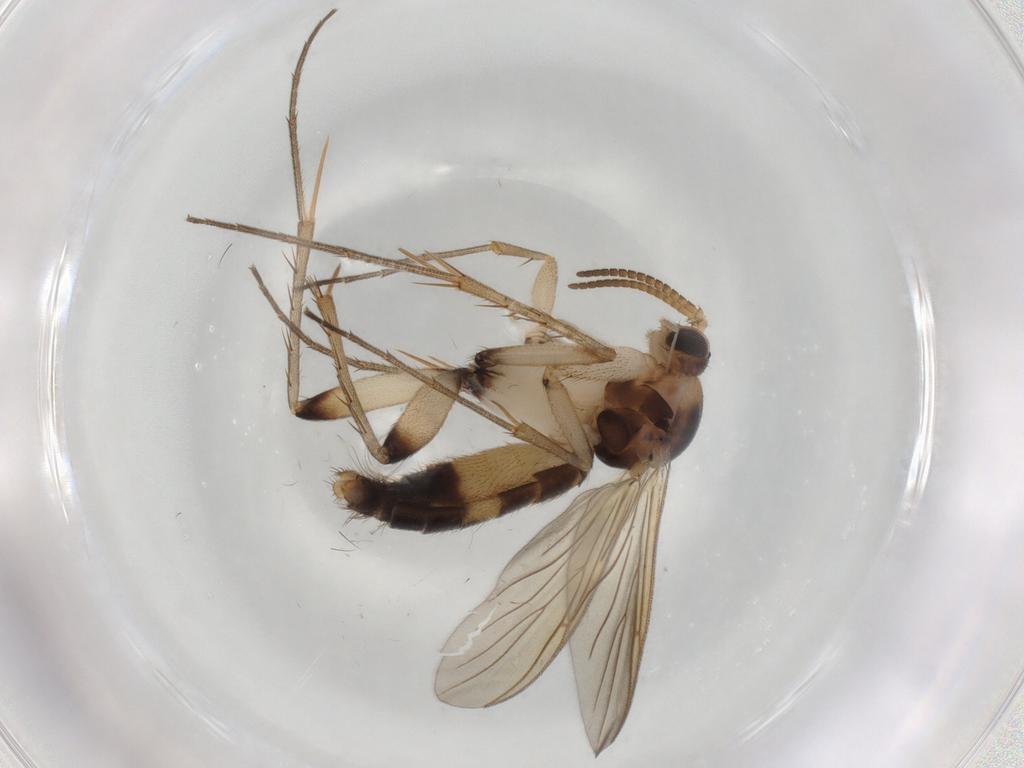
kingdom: Animalia
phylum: Arthropoda
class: Insecta
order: Diptera
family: Mycetophilidae
